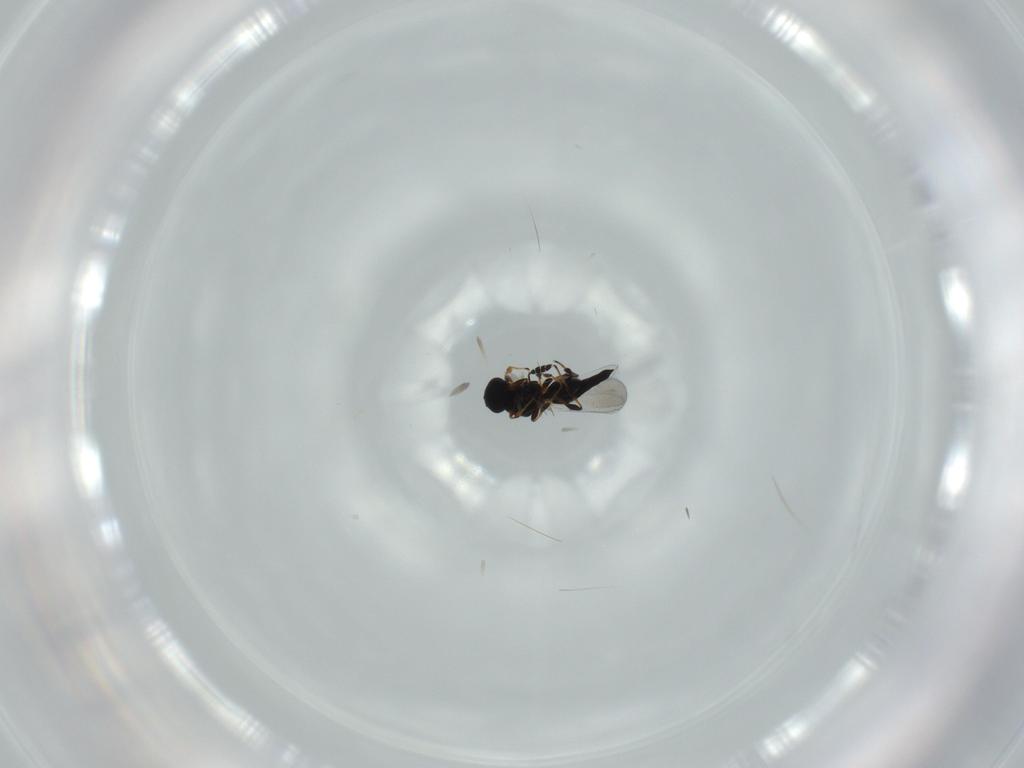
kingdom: Animalia
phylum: Arthropoda
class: Insecta
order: Hymenoptera
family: Platygastridae
